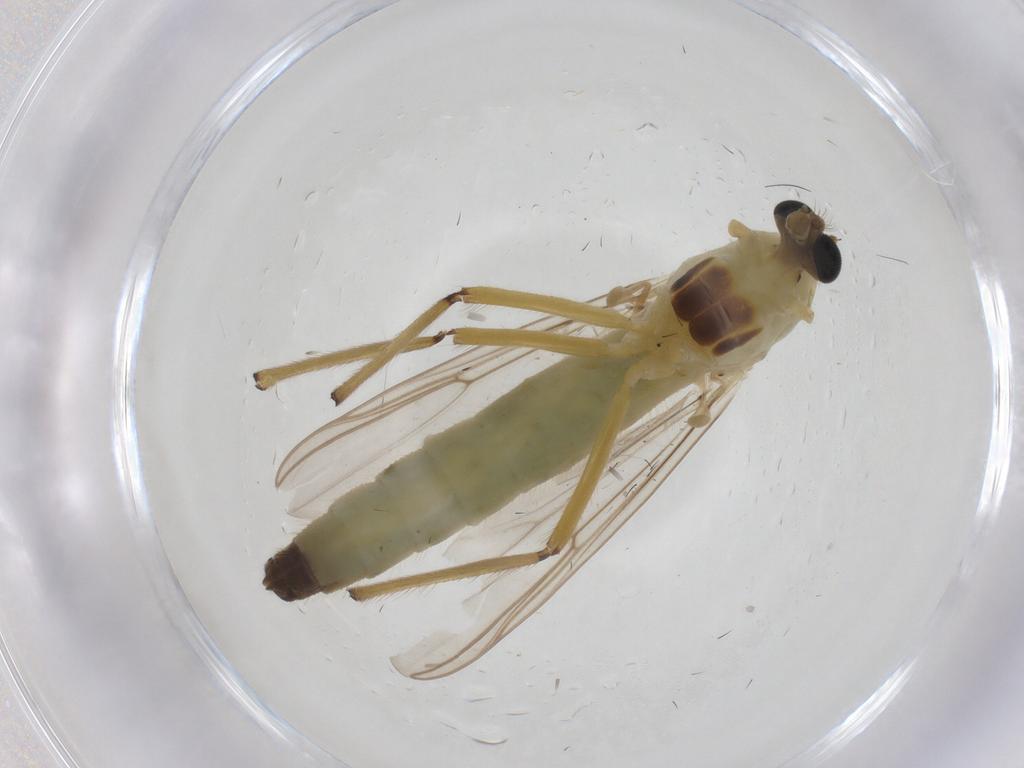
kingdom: Animalia
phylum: Arthropoda
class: Insecta
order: Diptera
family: Chironomidae
